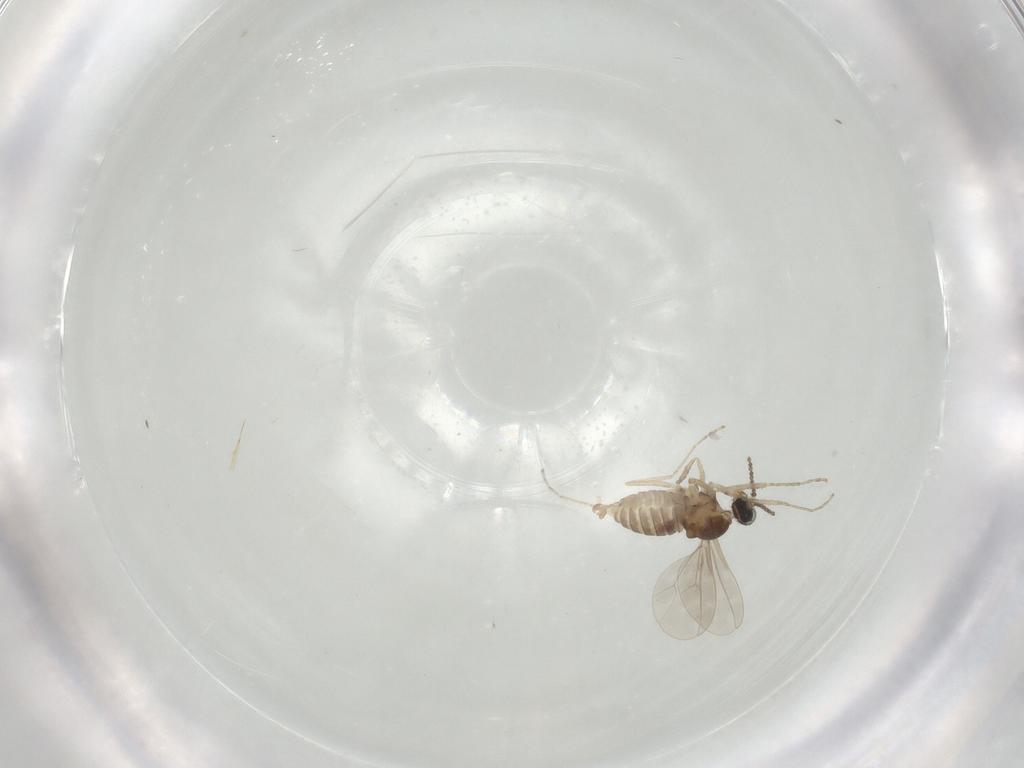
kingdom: Animalia
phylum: Arthropoda
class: Insecta
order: Diptera
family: Cecidomyiidae
